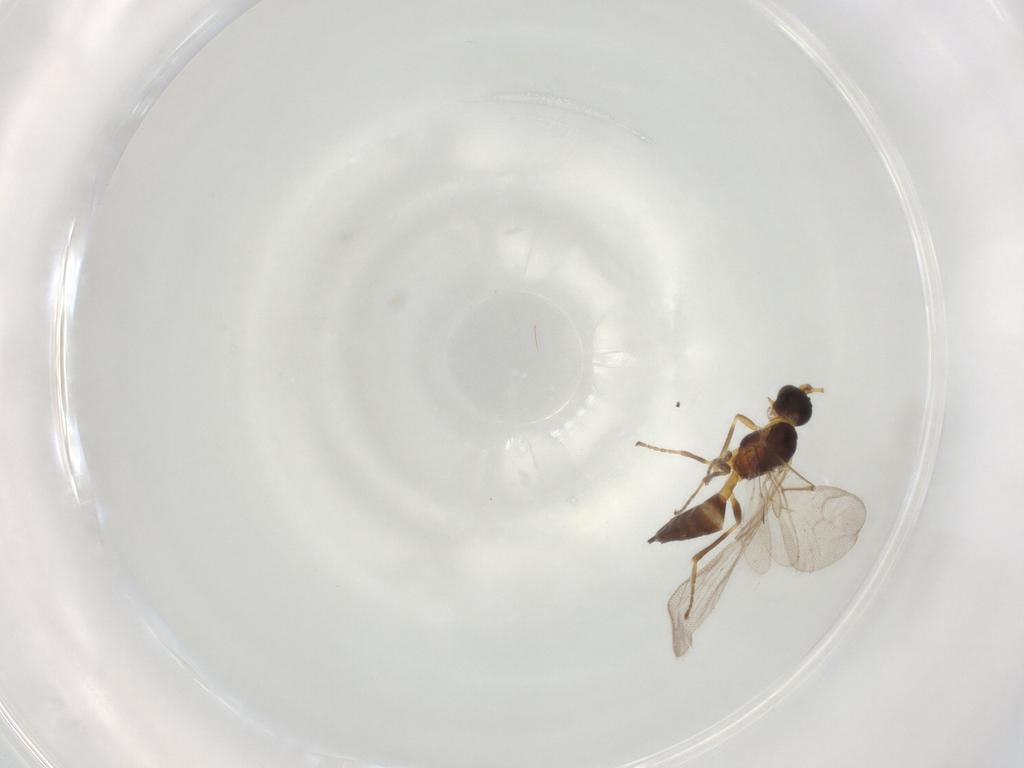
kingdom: Animalia
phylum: Arthropoda
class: Insecta
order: Hymenoptera
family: Braconidae
